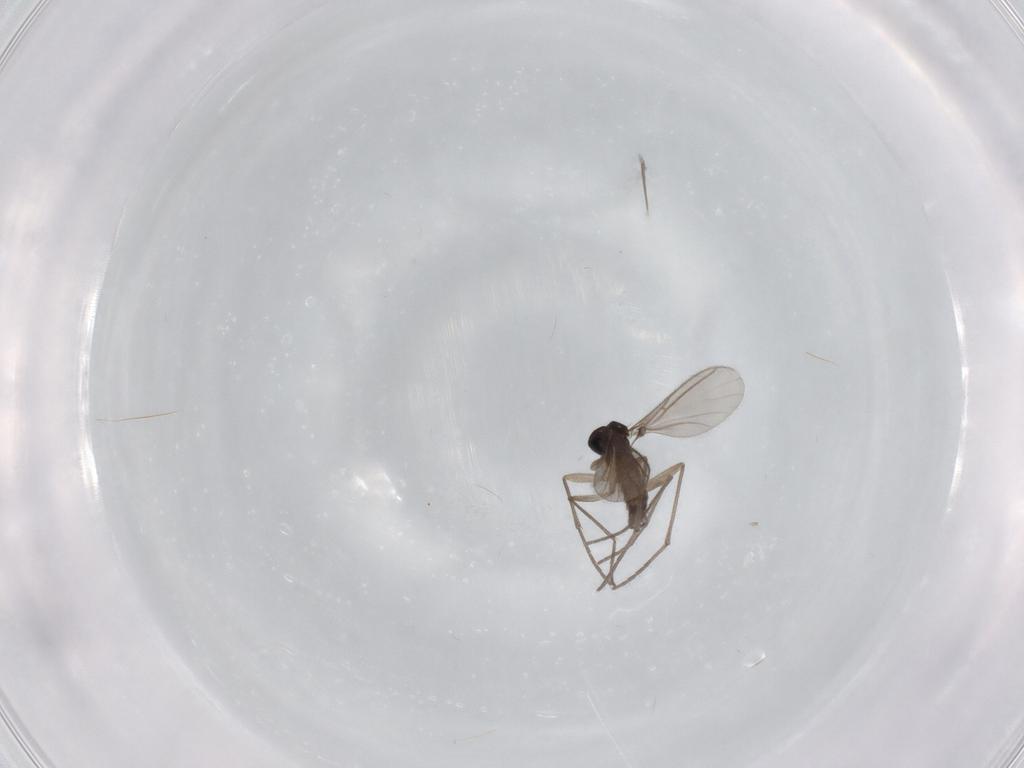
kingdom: Animalia
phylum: Arthropoda
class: Insecta
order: Diptera
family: Sciaridae
